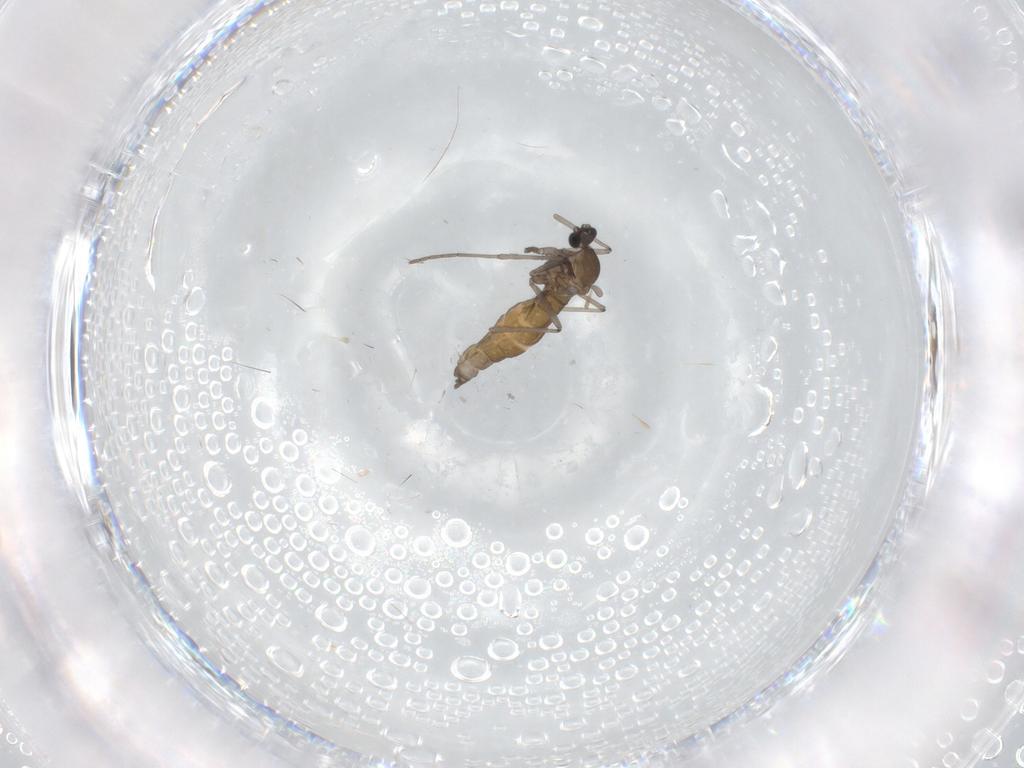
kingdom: Animalia
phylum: Arthropoda
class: Insecta
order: Diptera
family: Cecidomyiidae
